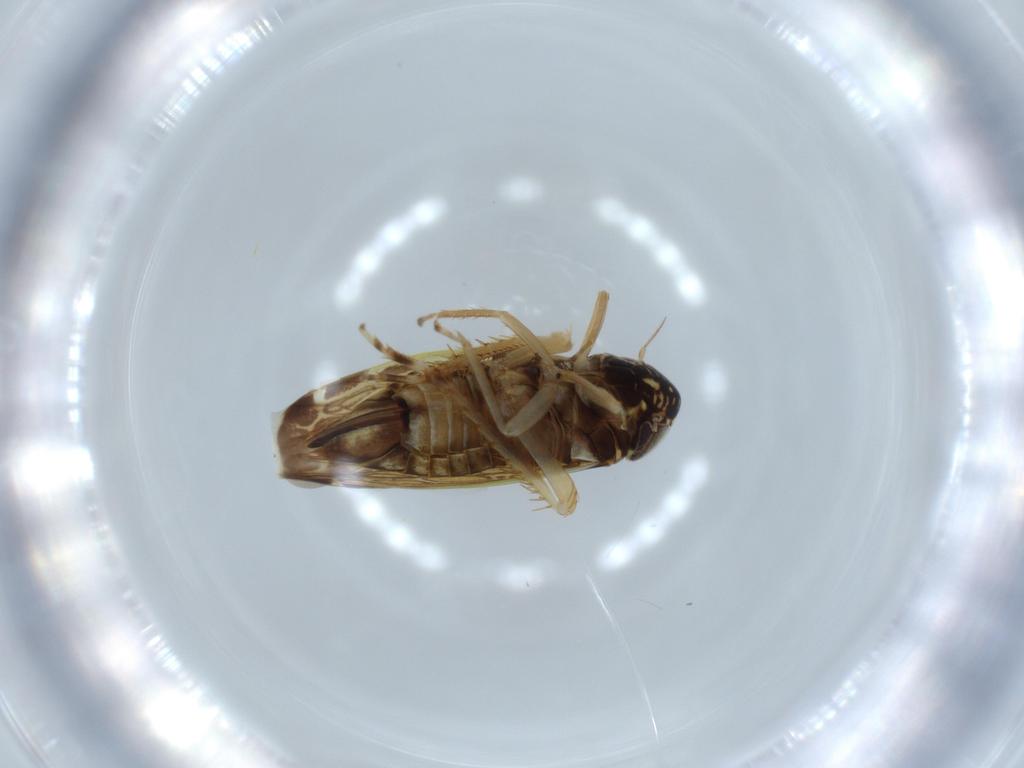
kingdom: Animalia
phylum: Arthropoda
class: Insecta
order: Hemiptera
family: Cicadellidae
